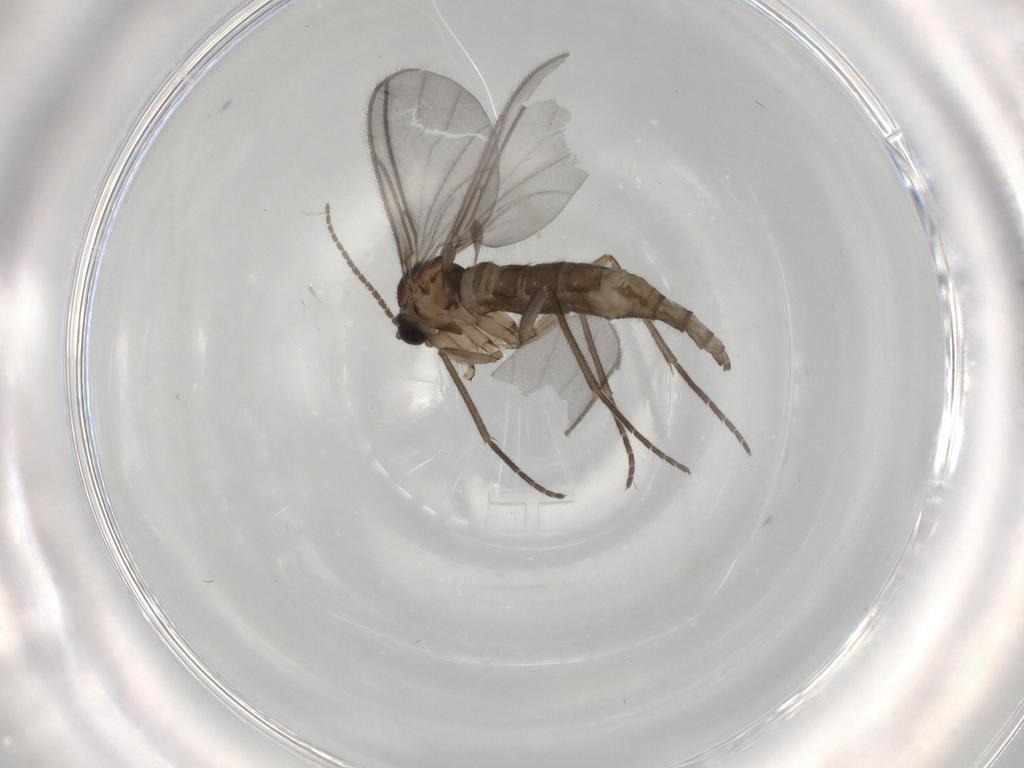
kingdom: Animalia
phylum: Arthropoda
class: Insecta
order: Diptera
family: Sciaridae
